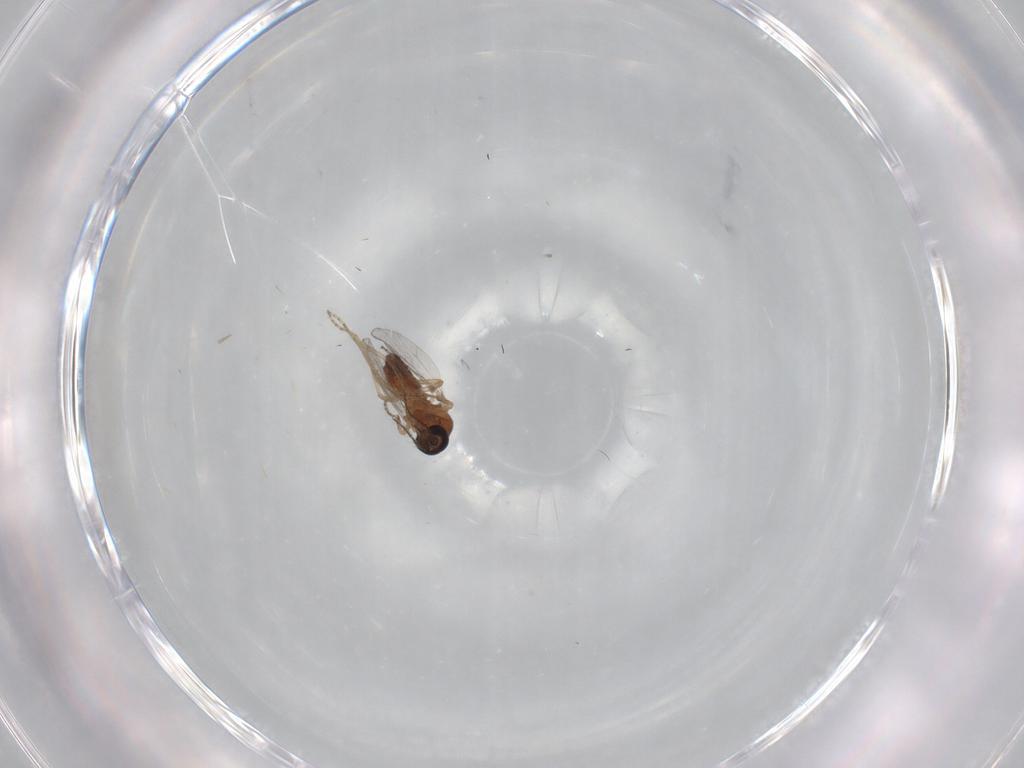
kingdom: Animalia
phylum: Arthropoda
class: Insecta
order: Diptera
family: Ceratopogonidae
